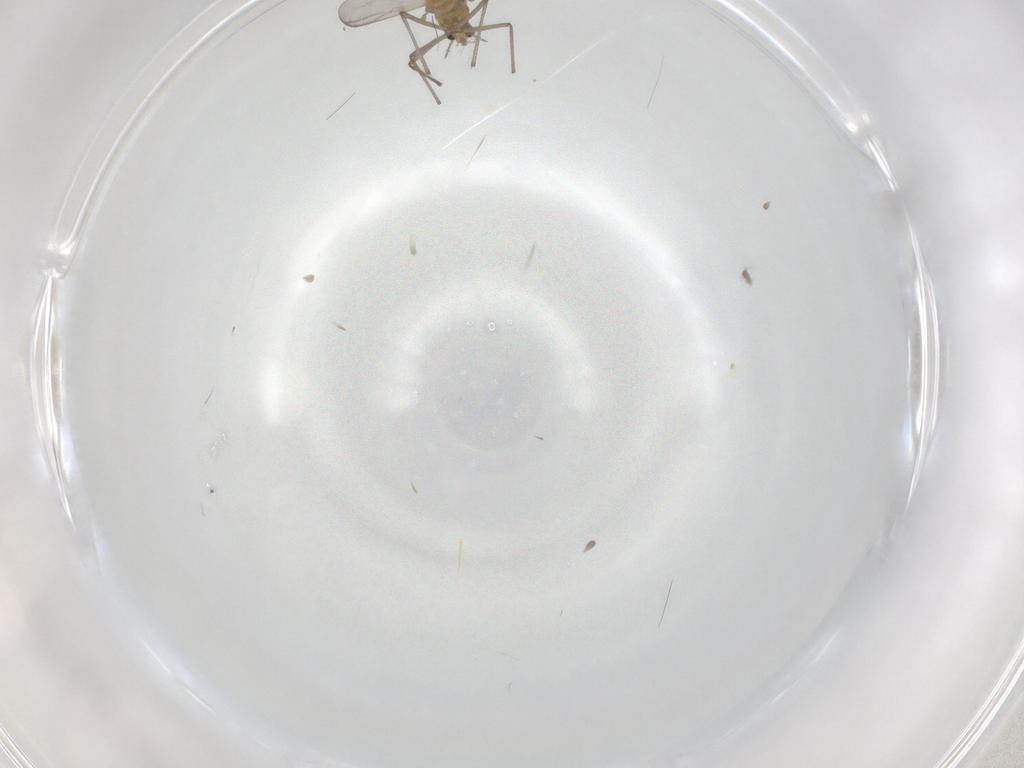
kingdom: Animalia
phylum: Arthropoda
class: Insecta
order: Diptera
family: Chironomidae
